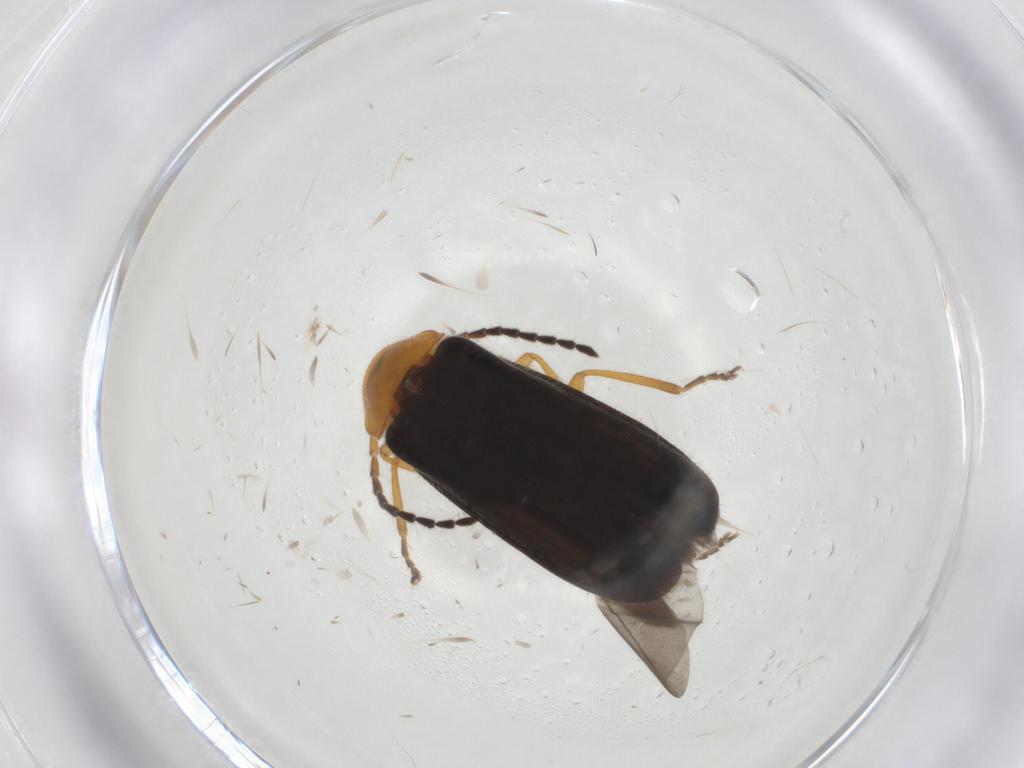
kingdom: Animalia
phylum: Arthropoda
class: Insecta
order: Coleoptera
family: Cantharidae
